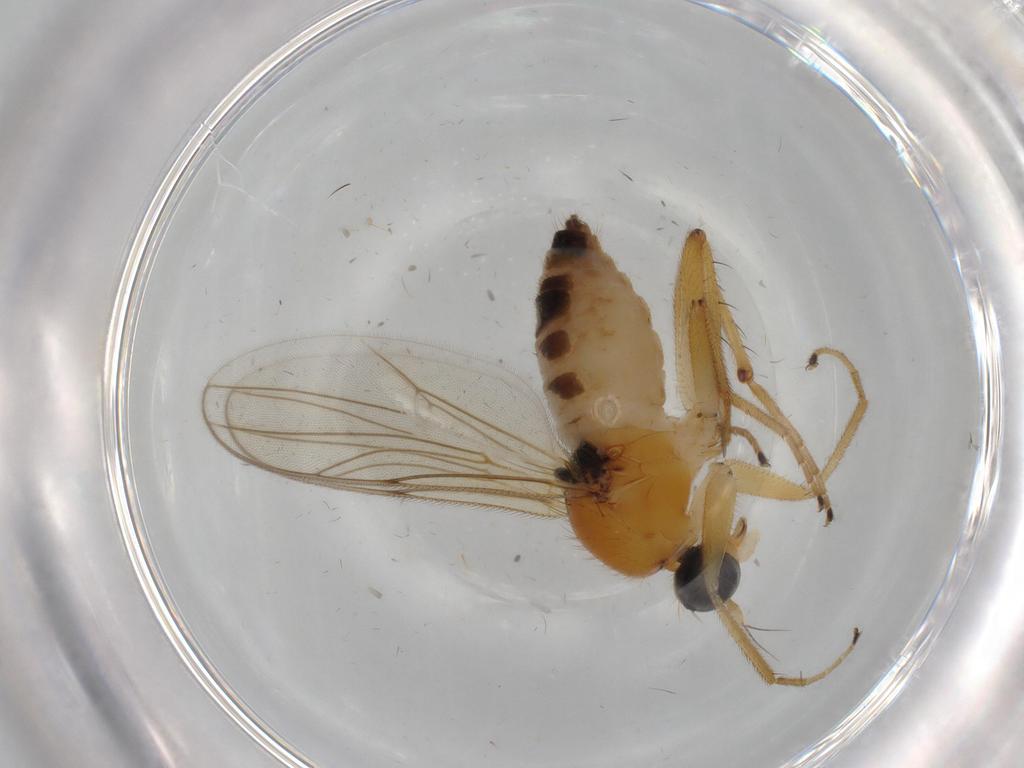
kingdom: Animalia
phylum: Arthropoda
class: Insecta
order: Diptera
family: Hybotidae
